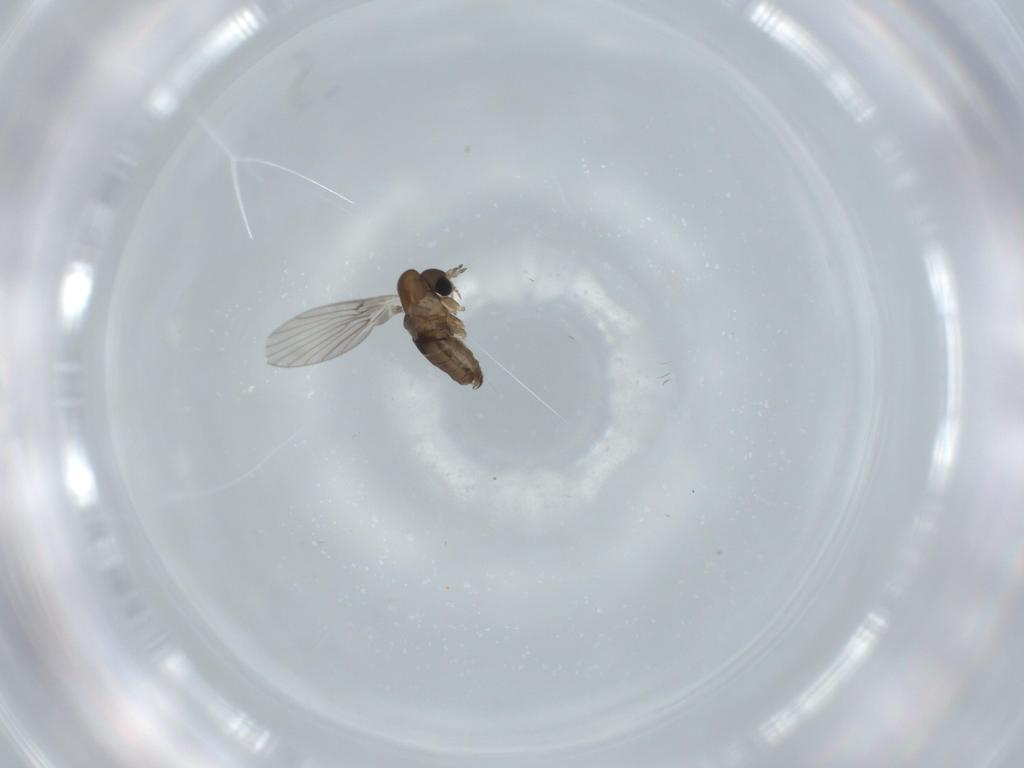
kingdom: Animalia
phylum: Arthropoda
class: Insecta
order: Diptera
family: Psychodidae
